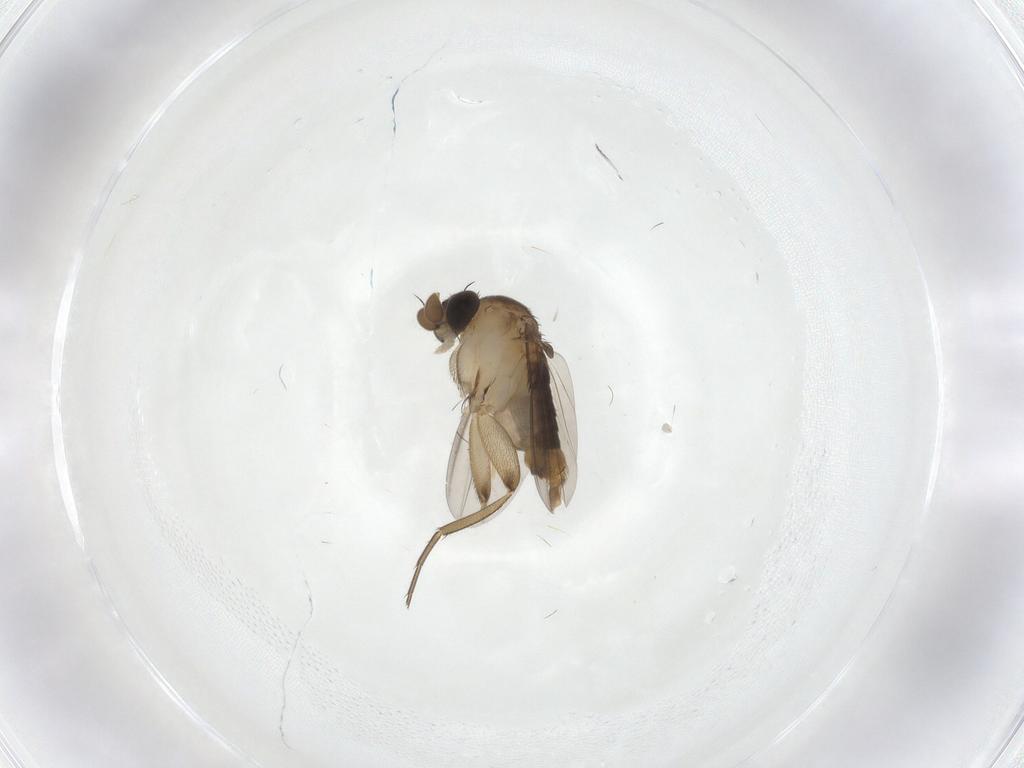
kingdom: Animalia
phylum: Arthropoda
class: Insecta
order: Diptera
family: Phoridae
